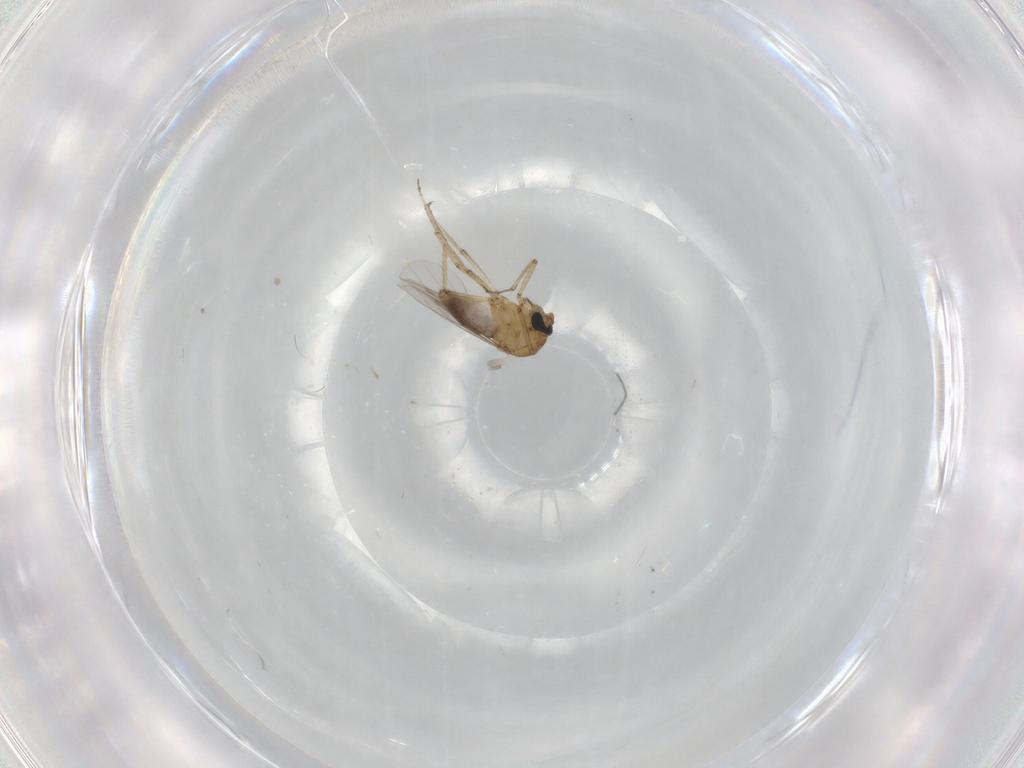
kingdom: Animalia
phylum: Arthropoda
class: Insecta
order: Diptera
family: Ceratopogonidae
